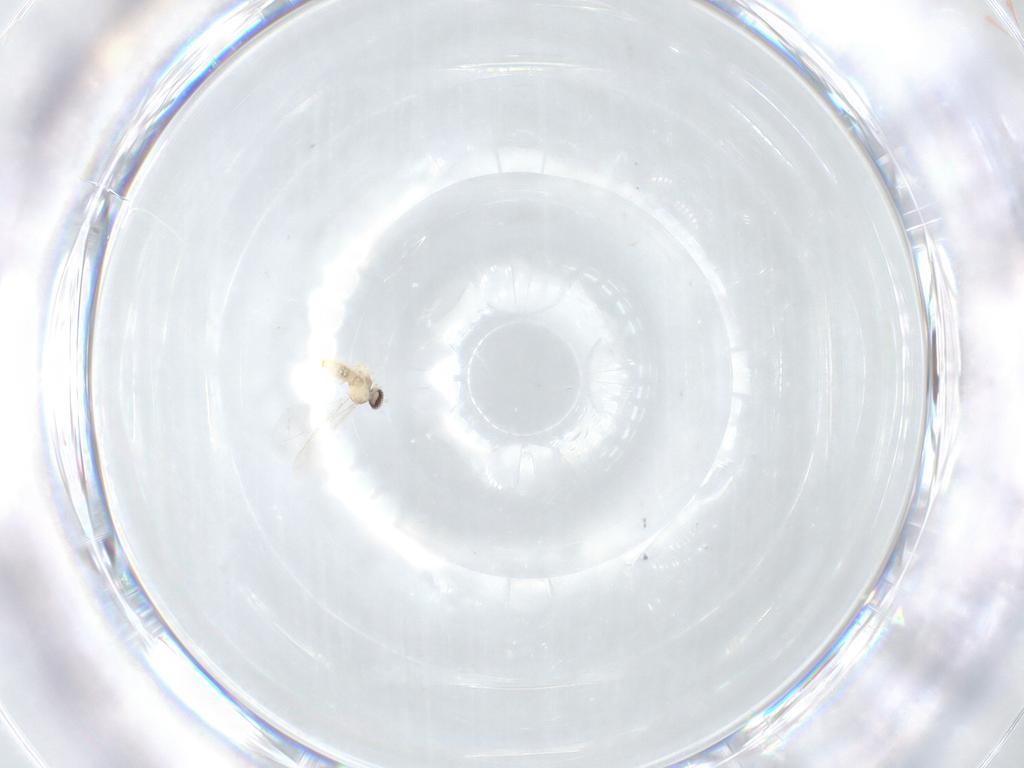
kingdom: Animalia
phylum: Arthropoda
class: Insecta
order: Diptera
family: Cecidomyiidae
